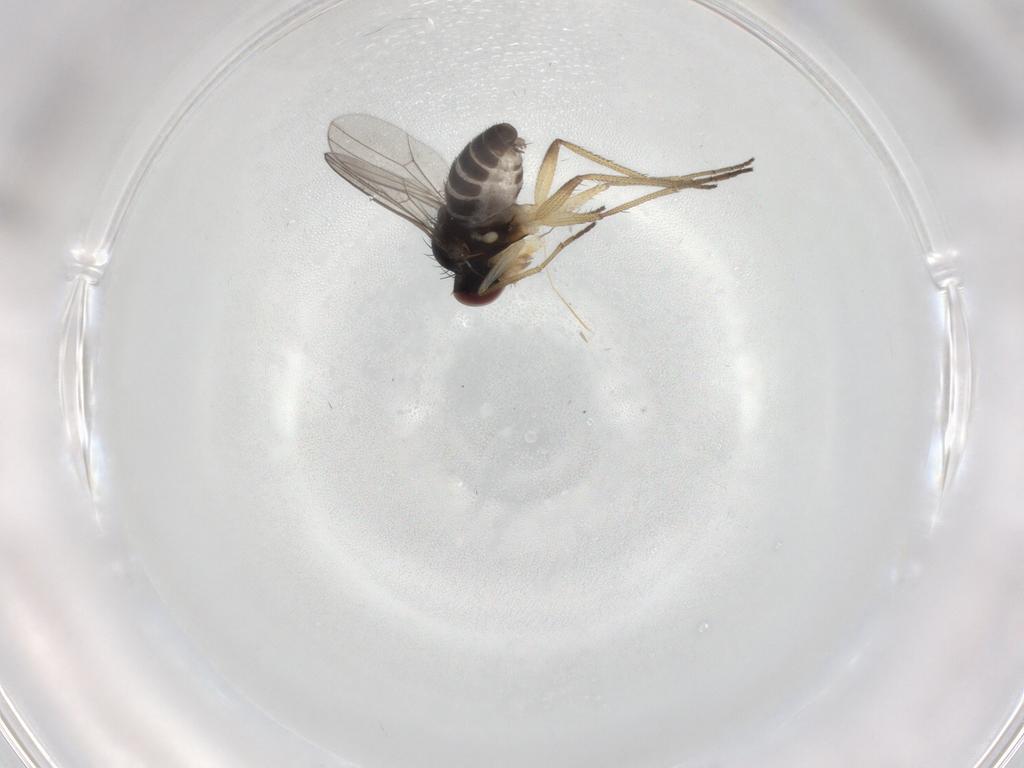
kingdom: Animalia
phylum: Arthropoda
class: Insecta
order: Diptera
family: Dolichopodidae
